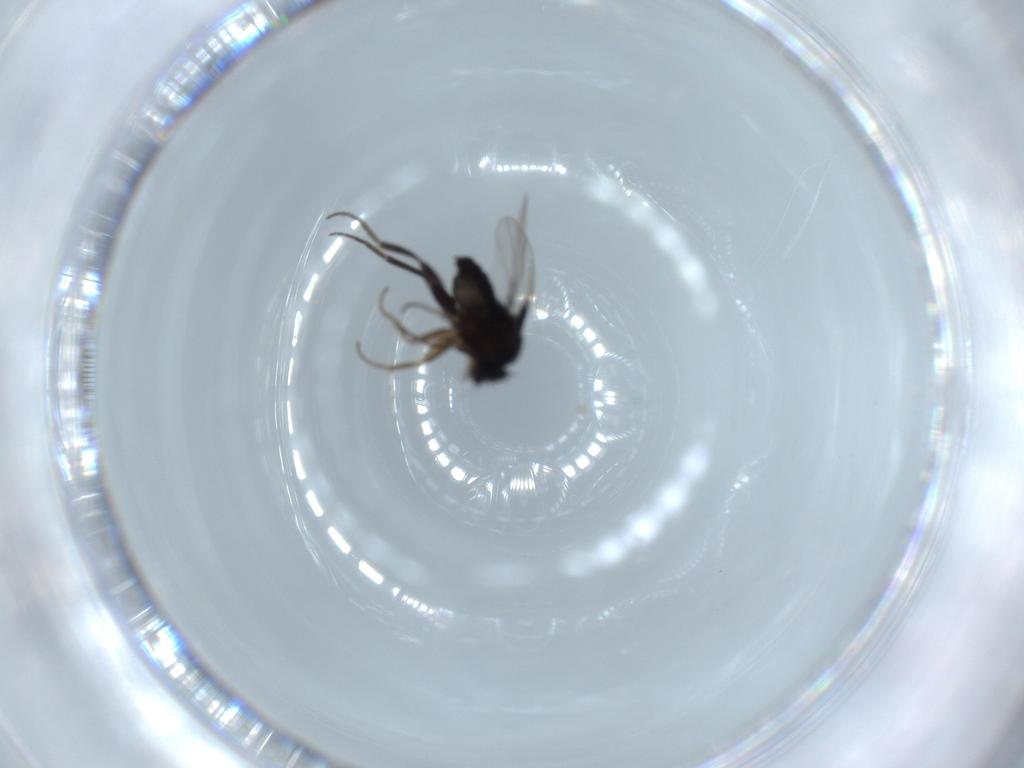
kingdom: Animalia
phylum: Arthropoda
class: Insecta
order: Diptera
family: Phoridae
